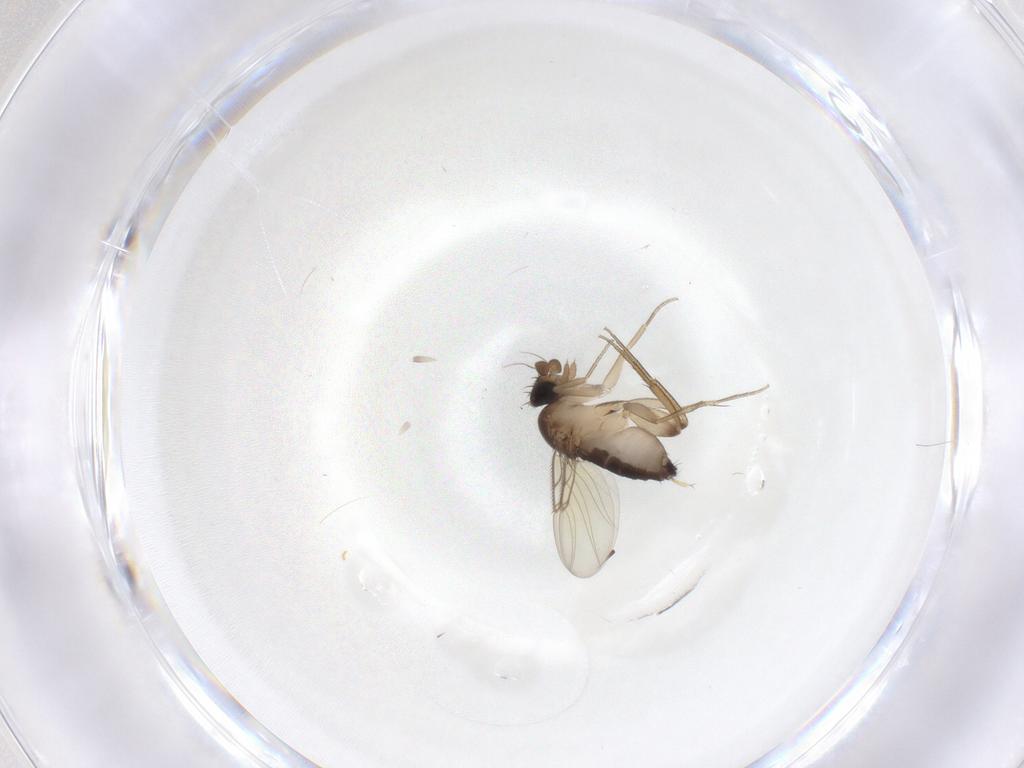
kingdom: Animalia
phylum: Arthropoda
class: Insecta
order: Diptera
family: Phoridae
